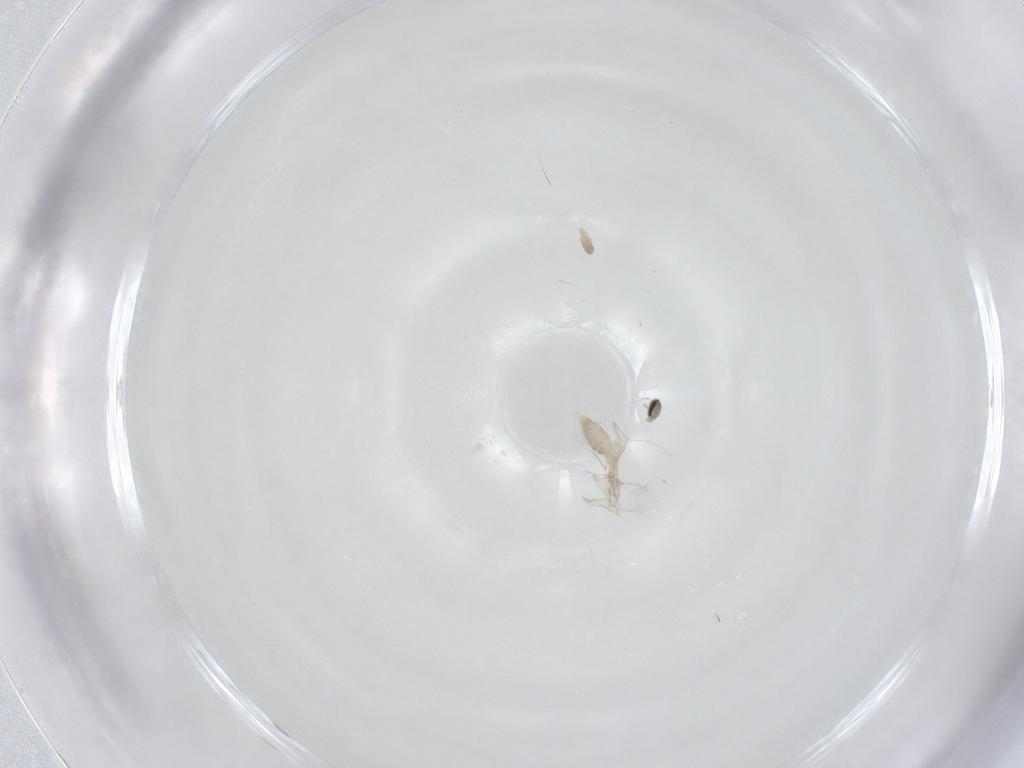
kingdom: Animalia
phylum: Arthropoda
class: Insecta
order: Diptera
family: Cecidomyiidae
